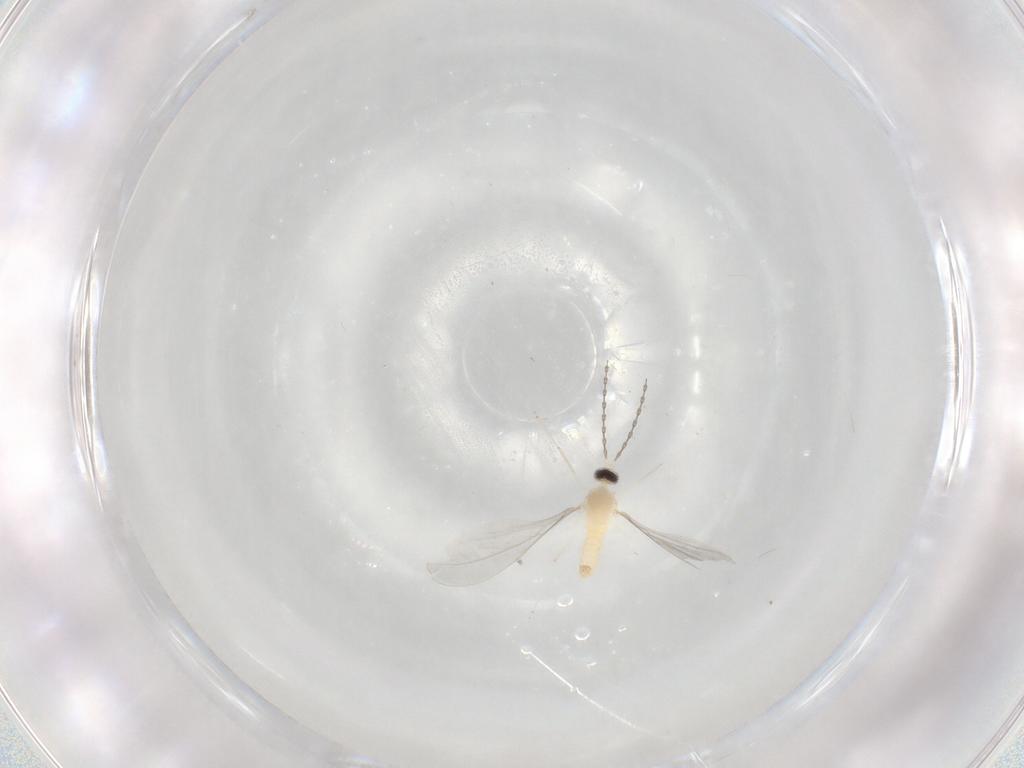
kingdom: Animalia
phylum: Arthropoda
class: Insecta
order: Diptera
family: Cecidomyiidae
